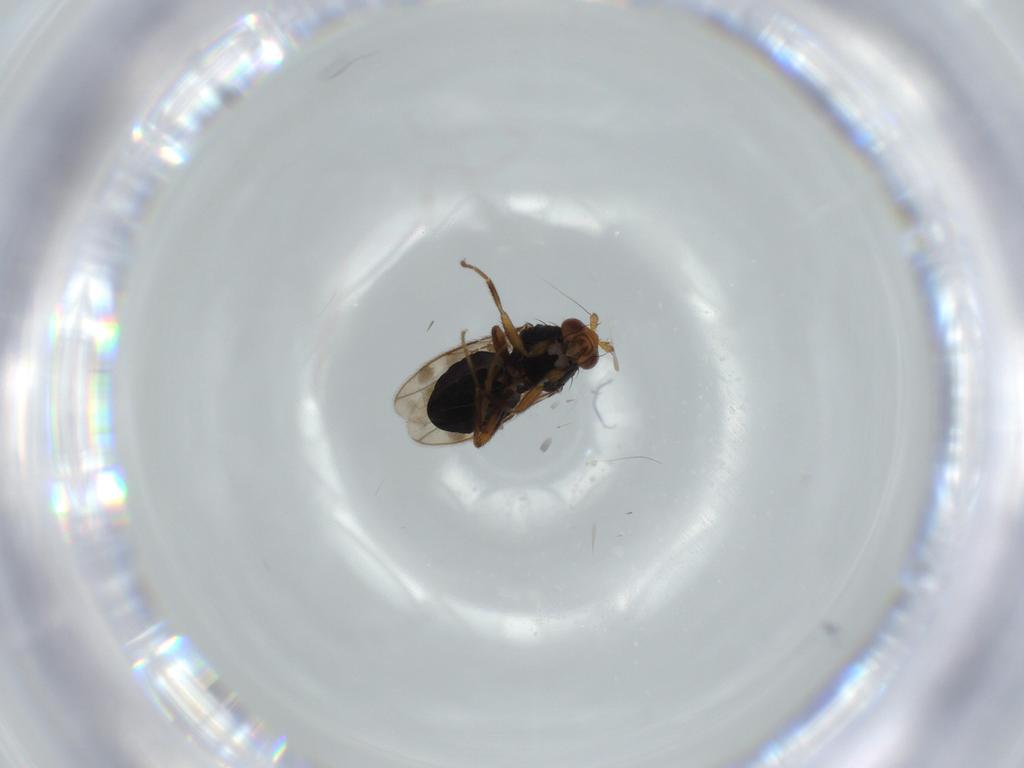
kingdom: Animalia
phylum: Arthropoda
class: Insecta
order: Diptera
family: Sphaeroceridae
